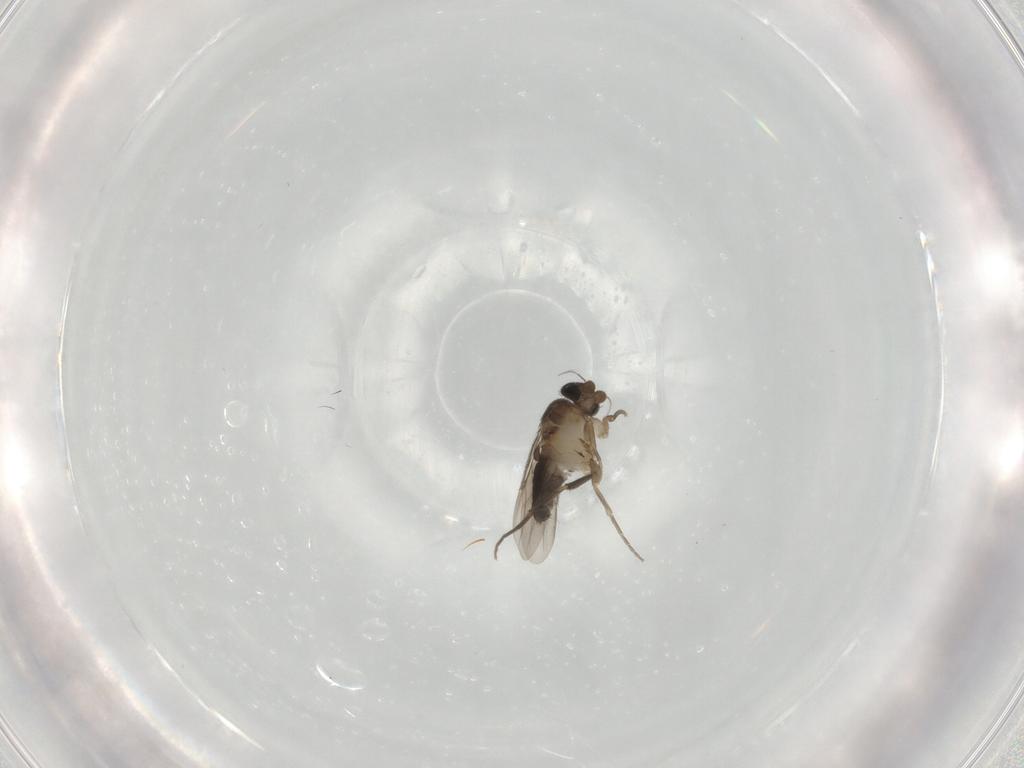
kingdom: Animalia
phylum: Arthropoda
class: Insecta
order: Diptera
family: Phoridae
